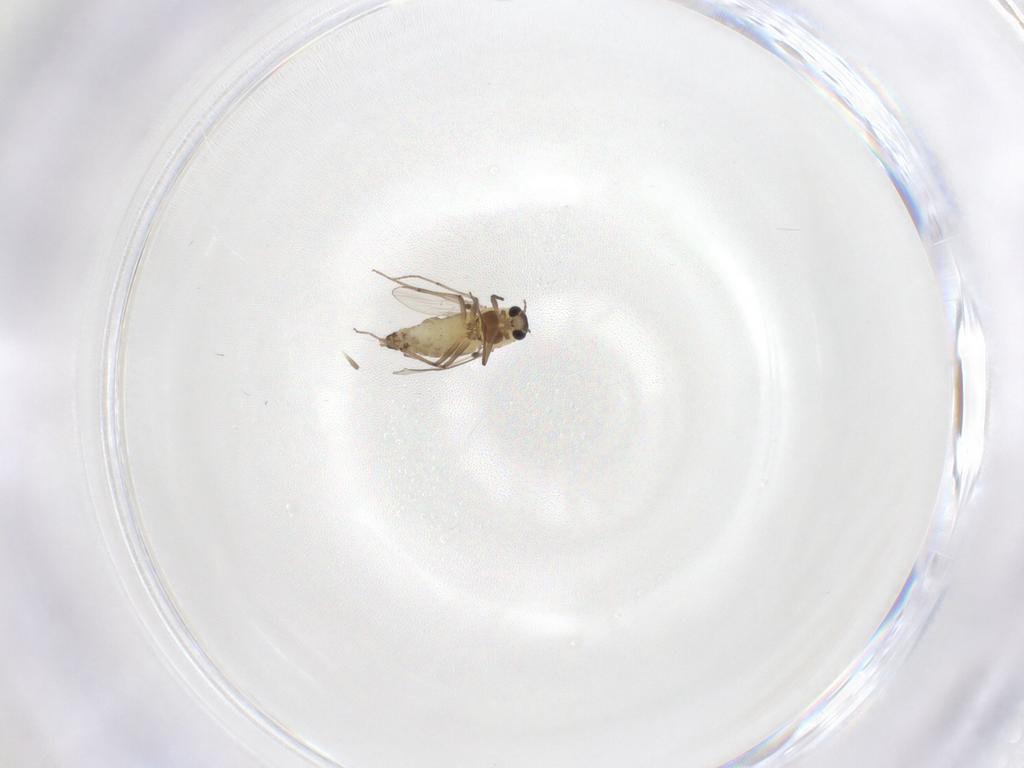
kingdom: Animalia
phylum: Arthropoda
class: Insecta
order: Diptera
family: Chironomidae
